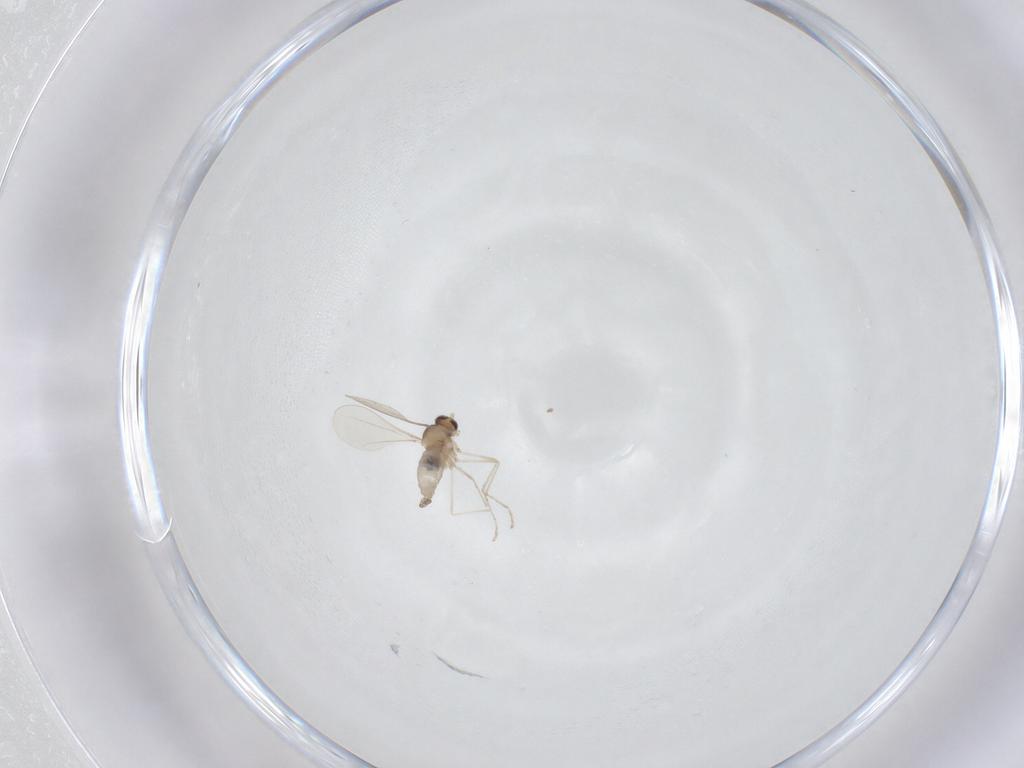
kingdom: Animalia
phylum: Arthropoda
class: Insecta
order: Diptera
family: Cecidomyiidae
